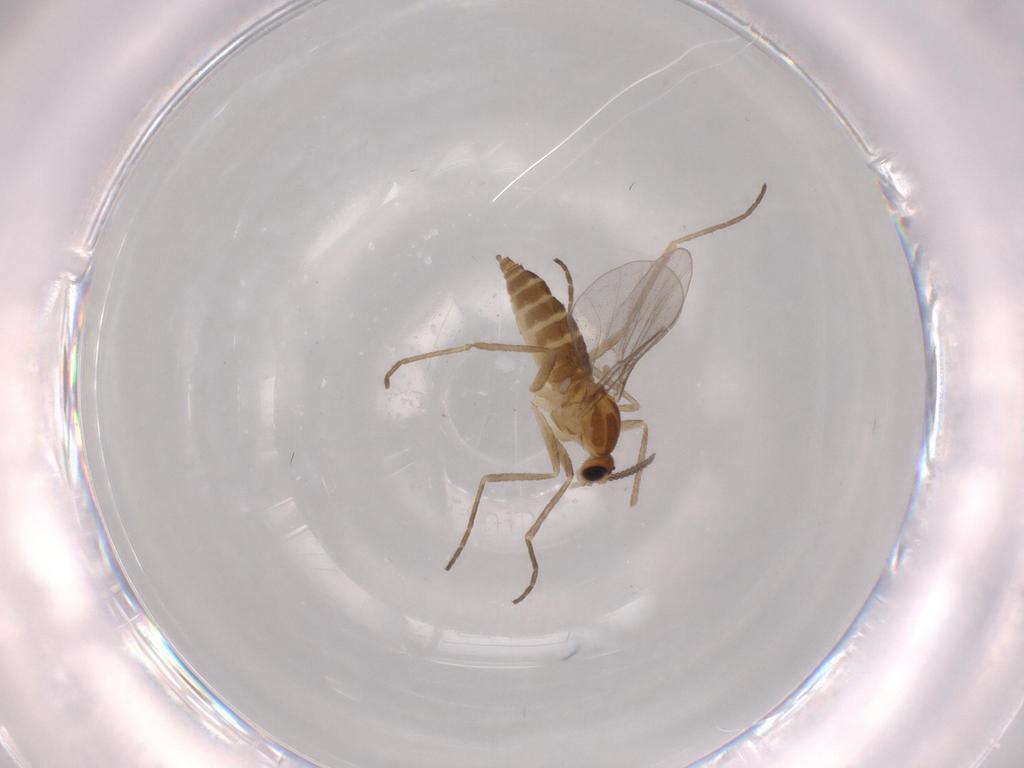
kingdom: Animalia
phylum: Arthropoda
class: Insecta
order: Diptera
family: Cecidomyiidae
